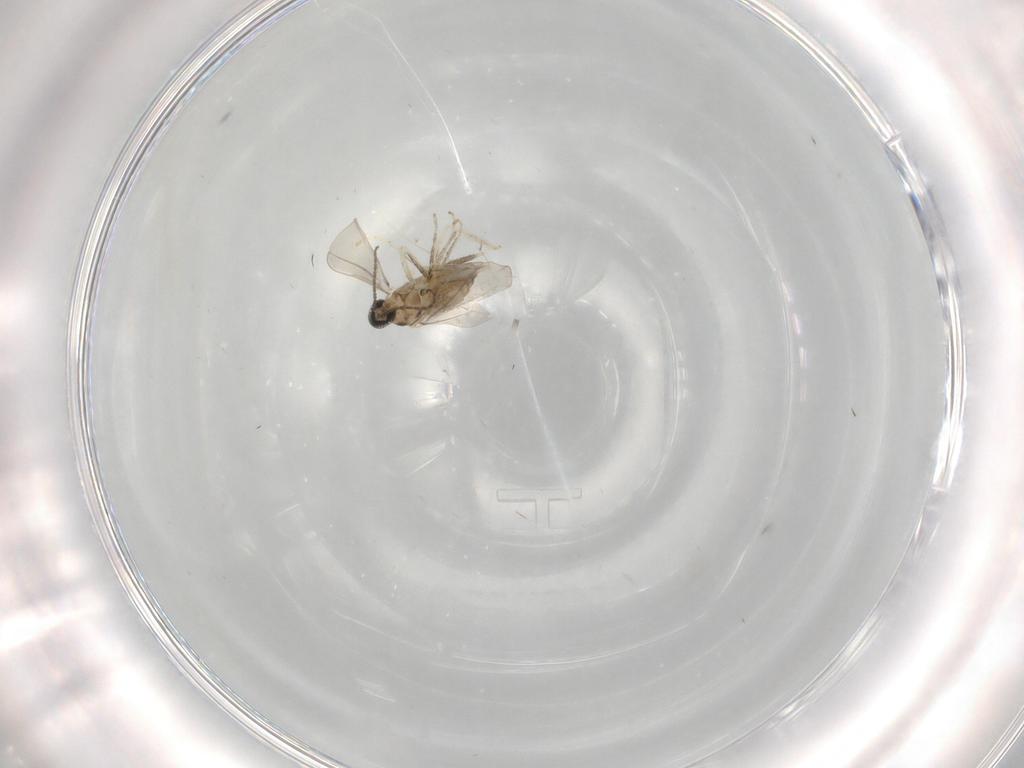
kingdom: Animalia
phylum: Arthropoda
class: Insecta
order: Diptera
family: Cecidomyiidae
